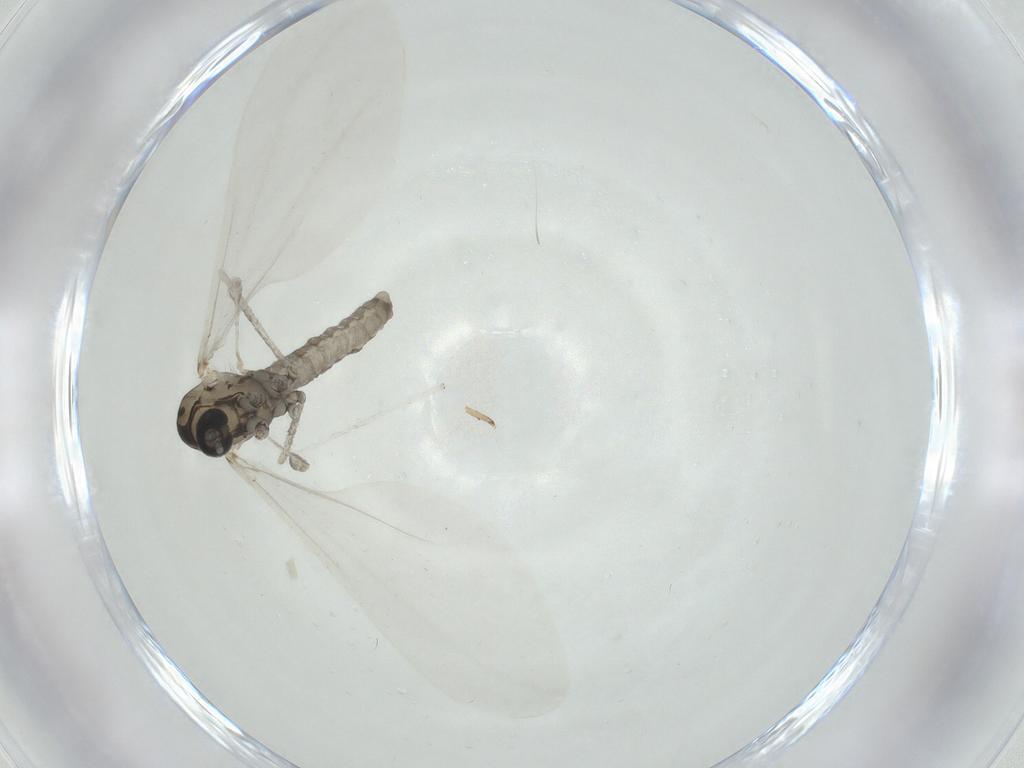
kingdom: Animalia
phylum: Arthropoda
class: Insecta
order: Diptera
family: Cecidomyiidae
